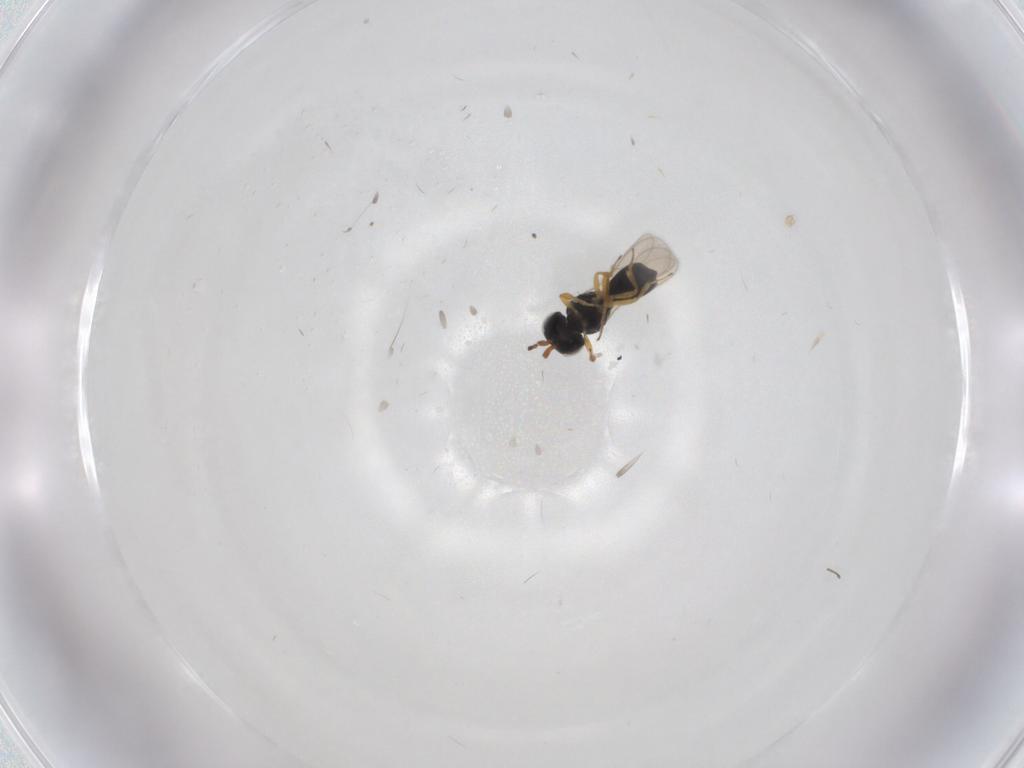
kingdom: Animalia
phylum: Arthropoda
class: Insecta
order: Hymenoptera
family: Scelionidae
